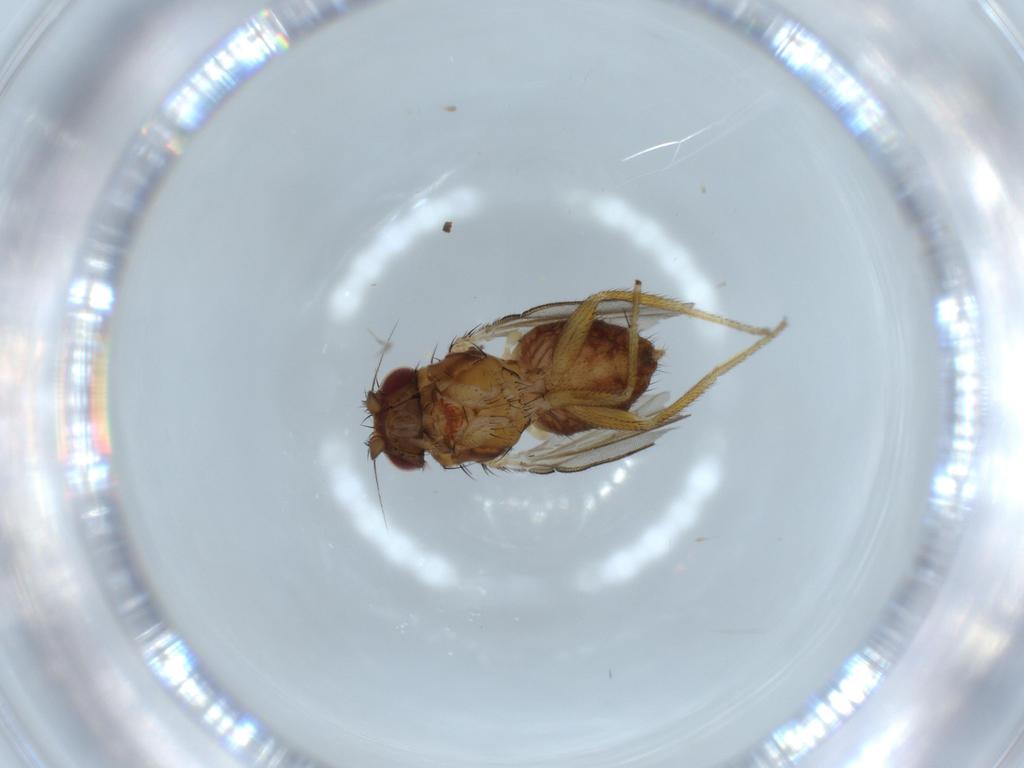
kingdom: Animalia
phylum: Arthropoda
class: Insecta
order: Diptera
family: Milichiidae
